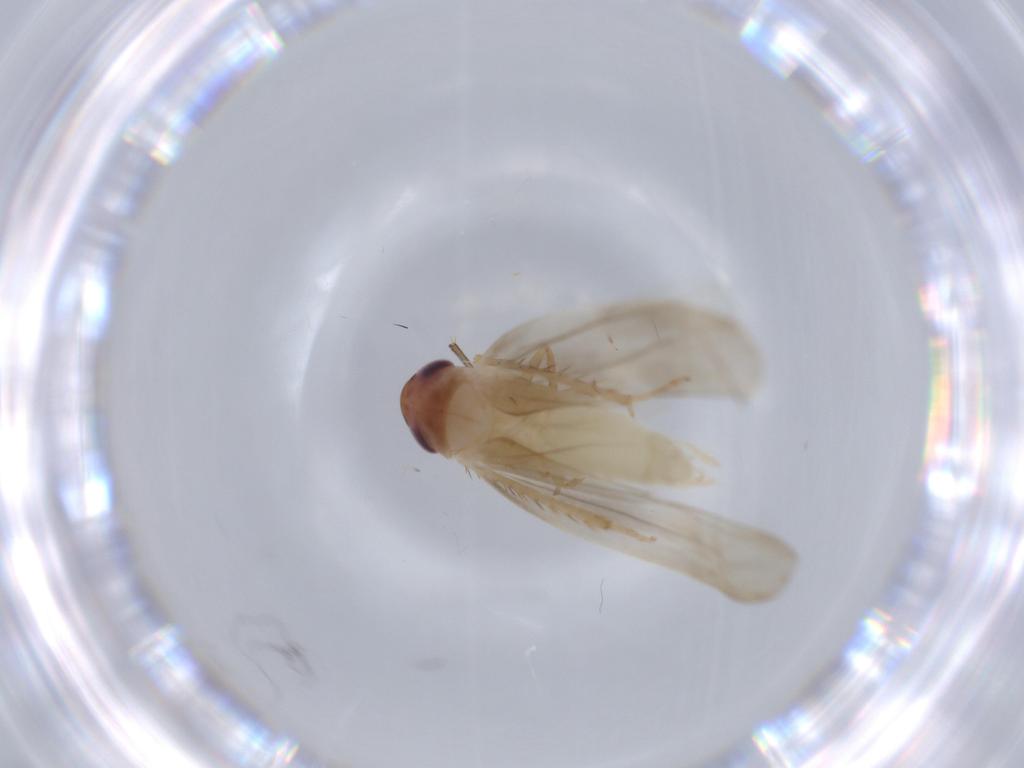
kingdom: Animalia
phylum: Arthropoda
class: Insecta
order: Hemiptera
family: Cicadellidae
